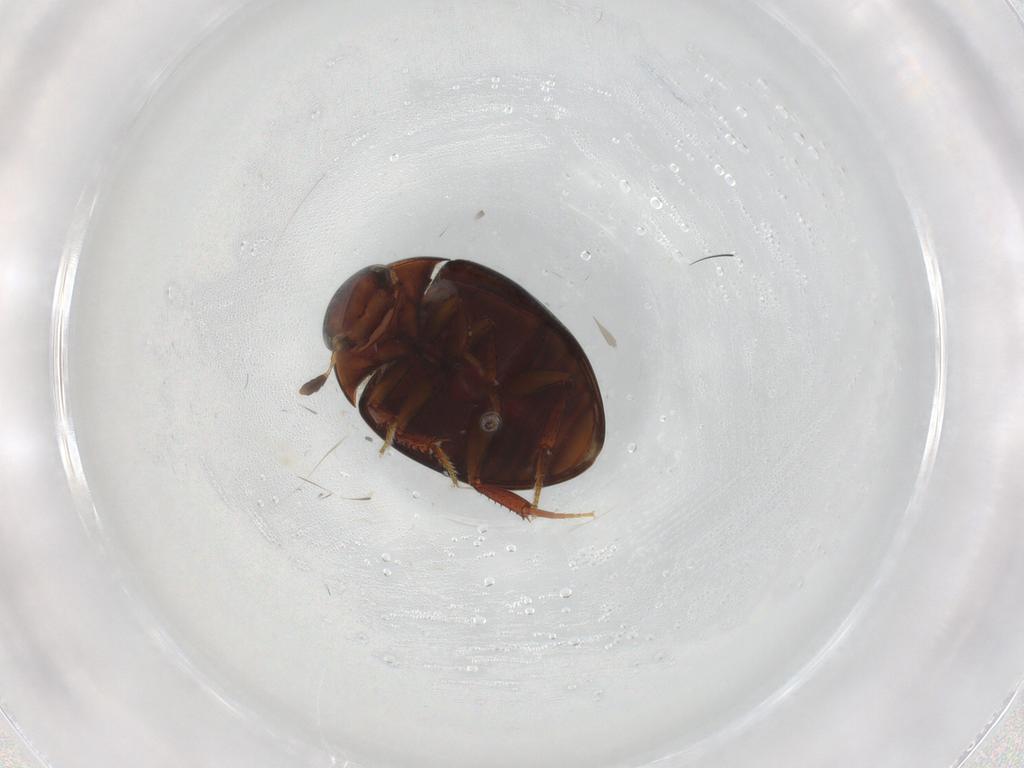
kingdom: Animalia
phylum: Arthropoda
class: Insecta
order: Coleoptera
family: Hydrophilidae
